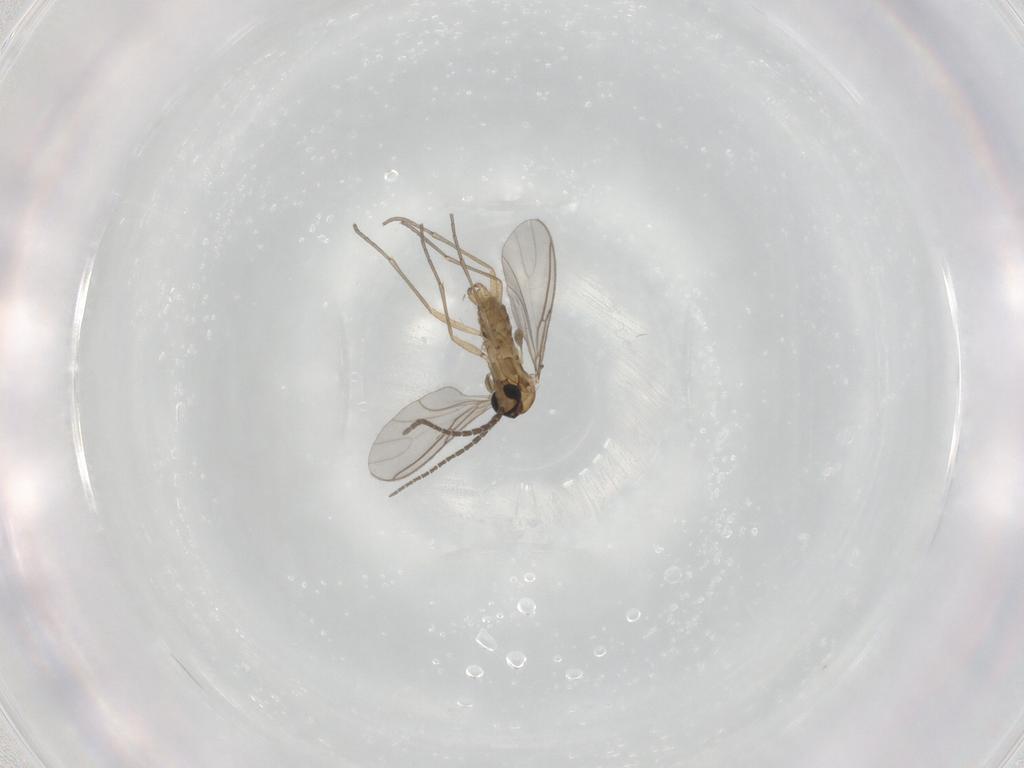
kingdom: Animalia
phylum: Arthropoda
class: Insecta
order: Diptera
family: Sciaridae
